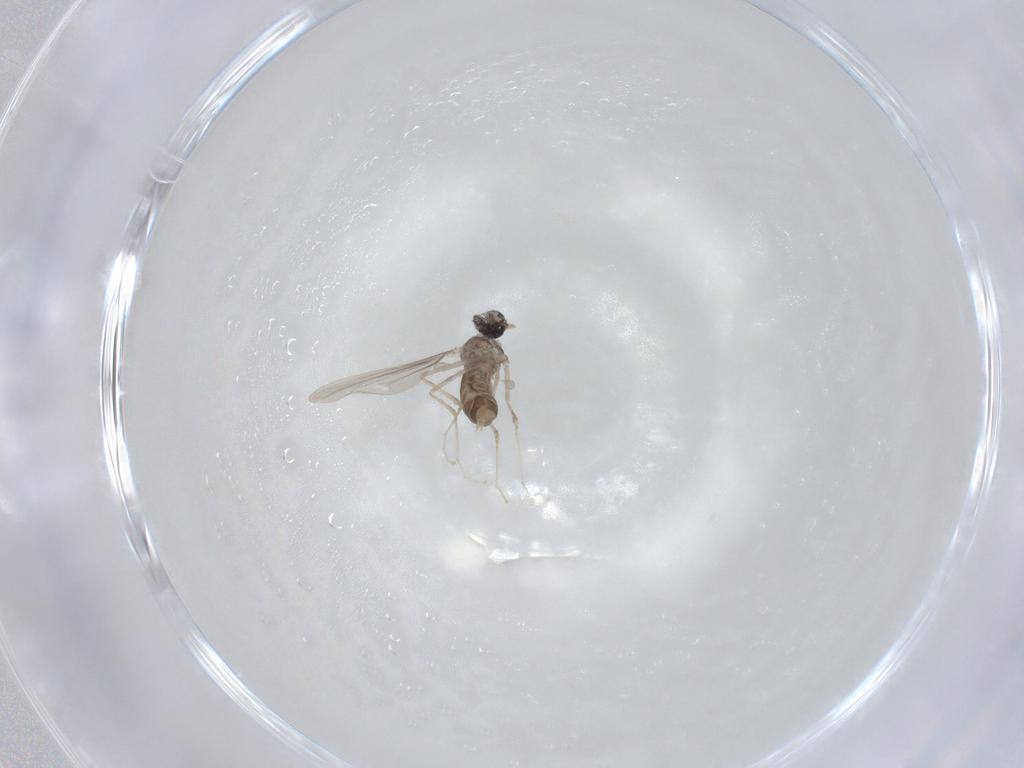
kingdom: Animalia
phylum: Arthropoda
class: Insecta
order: Diptera
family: Cecidomyiidae
